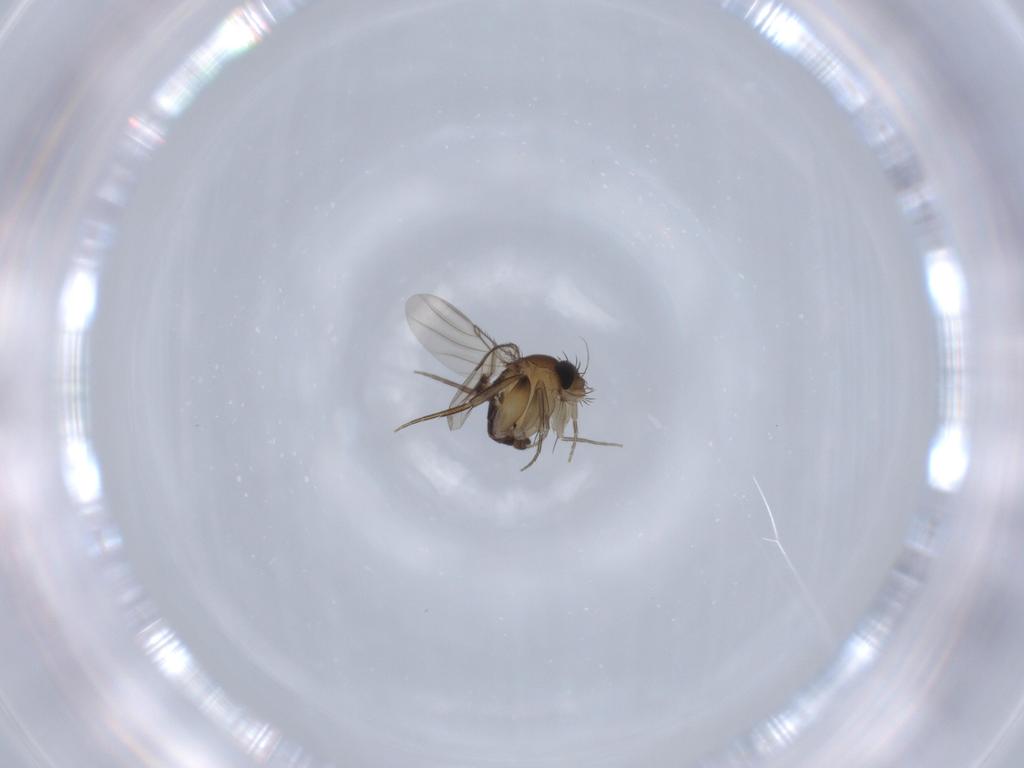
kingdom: Animalia
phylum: Arthropoda
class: Insecta
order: Diptera
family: Phoridae
